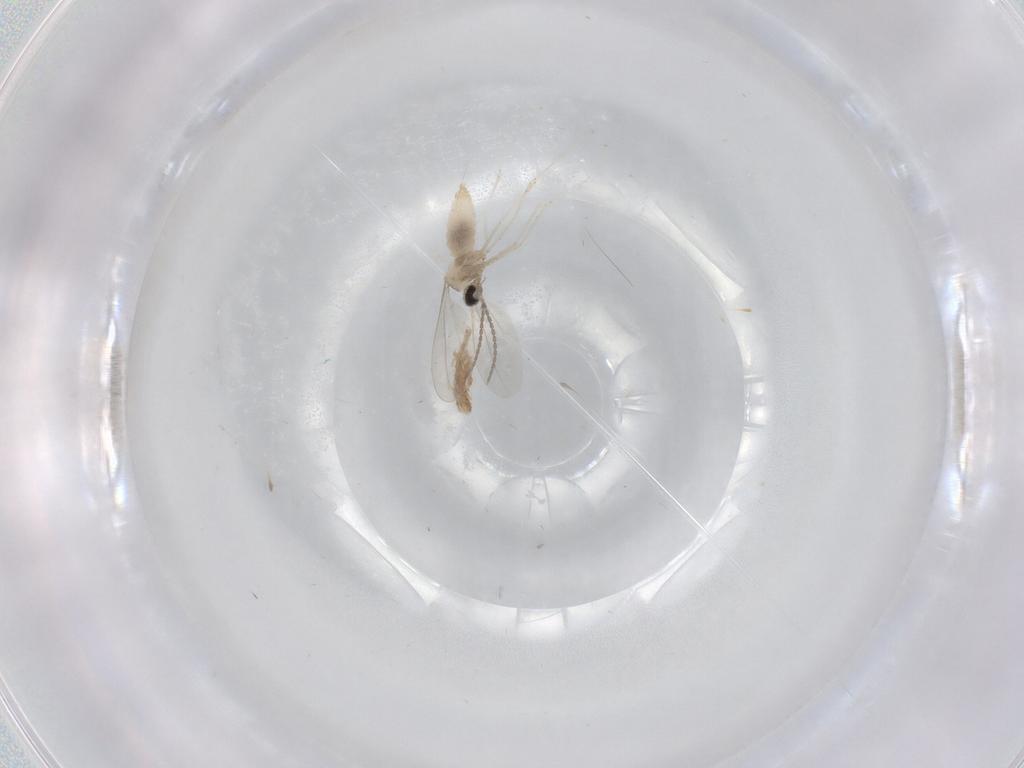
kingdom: Animalia
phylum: Arthropoda
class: Insecta
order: Diptera
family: Cecidomyiidae
